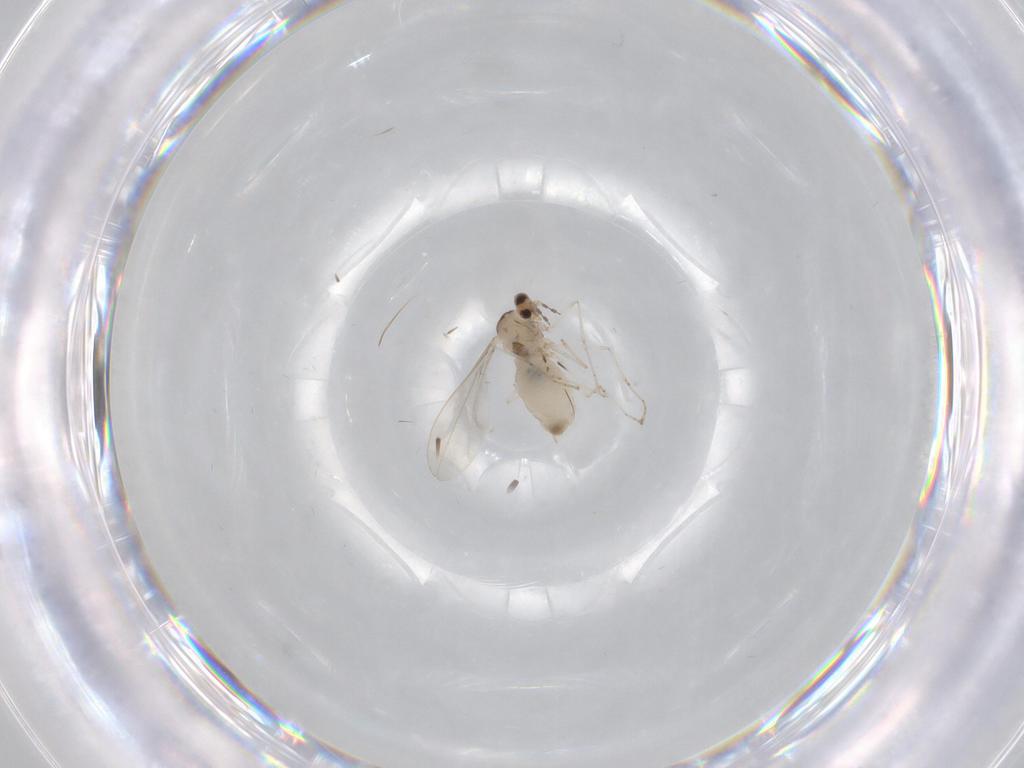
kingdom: Animalia
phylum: Arthropoda
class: Insecta
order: Diptera
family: Cecidomyiidae
